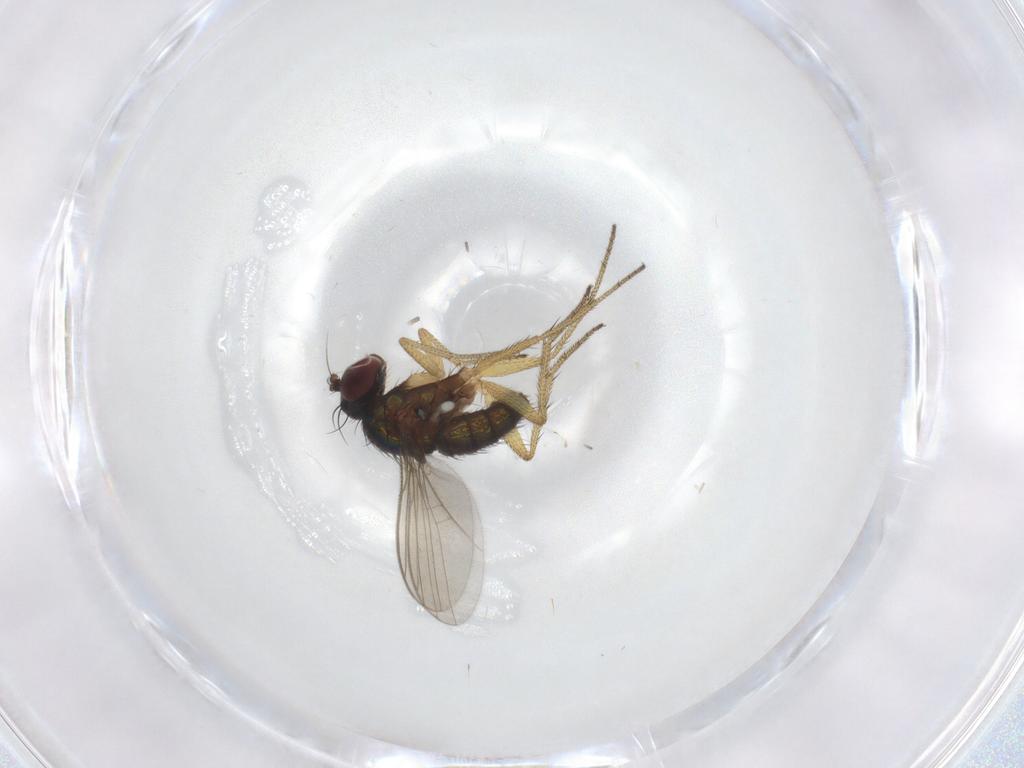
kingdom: Animalia
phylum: Arthropoda
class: Insecta
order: Diptera
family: Dolichopodidae
